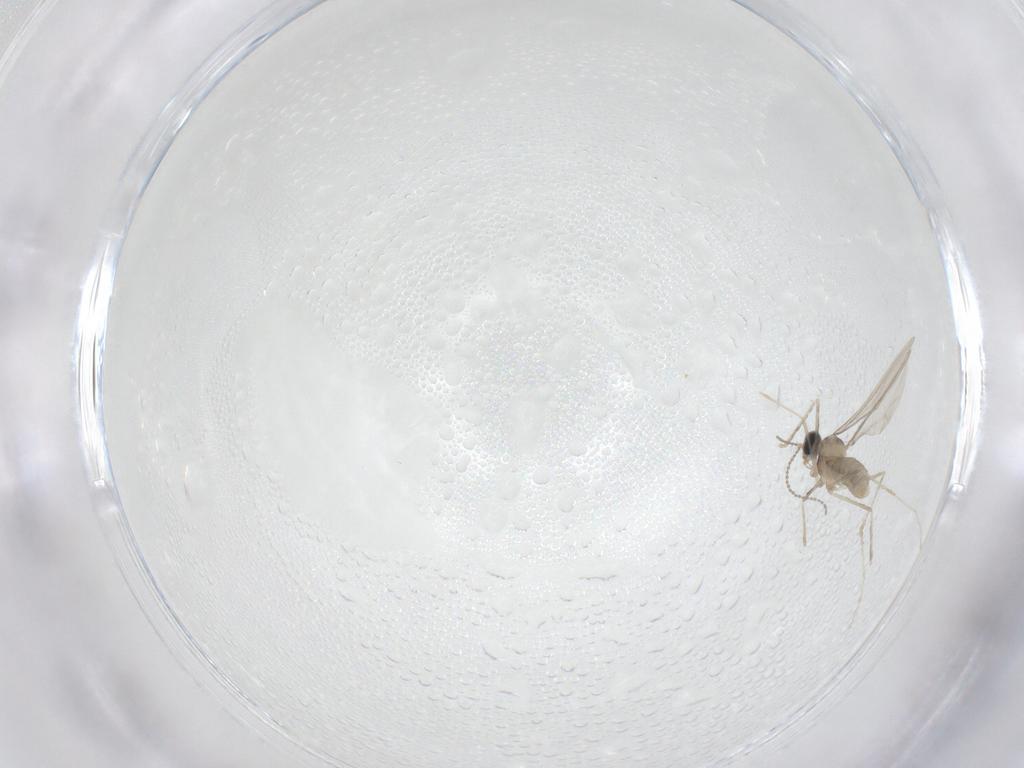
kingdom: Animalia
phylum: Arthropoda
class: Insecta
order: Diptera
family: Cecidomyiidae
